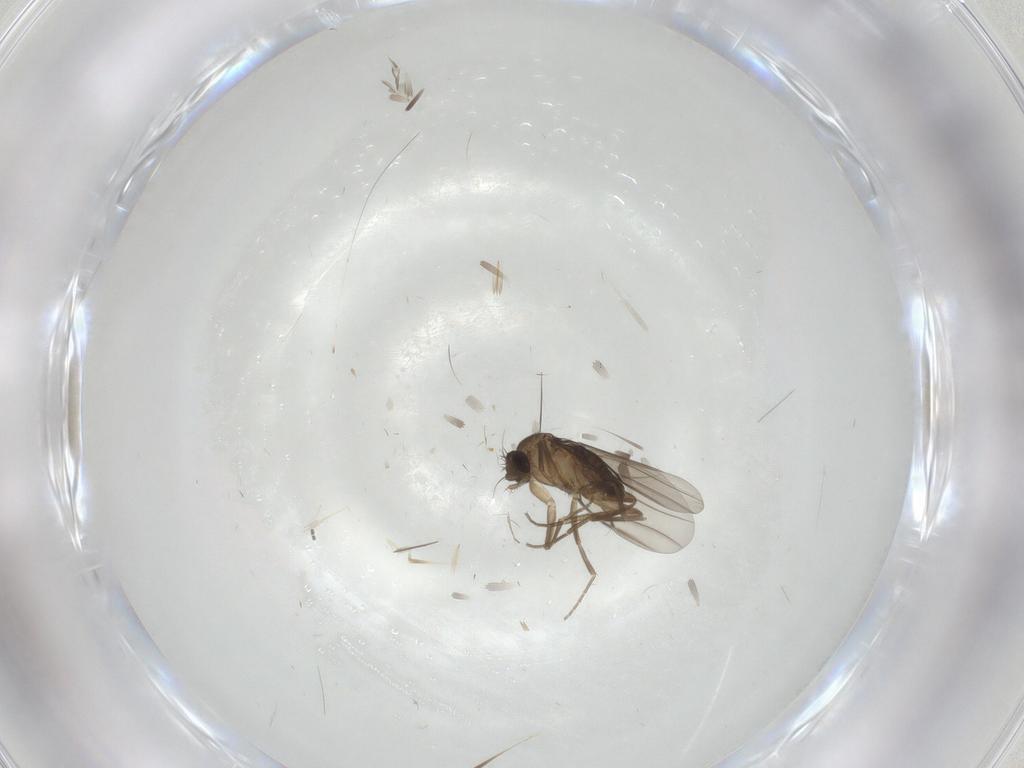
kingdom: Animalia
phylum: Arthropoda
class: Insecta
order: Diptera
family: Phoridae
